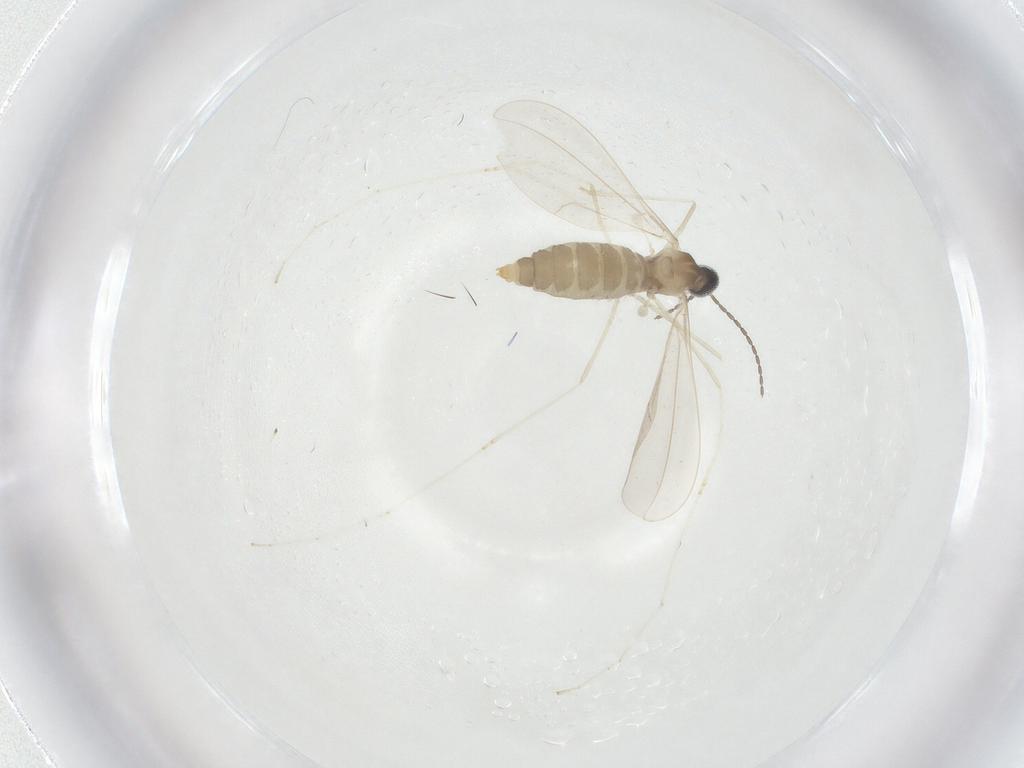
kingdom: Animalia
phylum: Arthropoda
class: Insecta
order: Diptera
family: Cecidomyiidae
